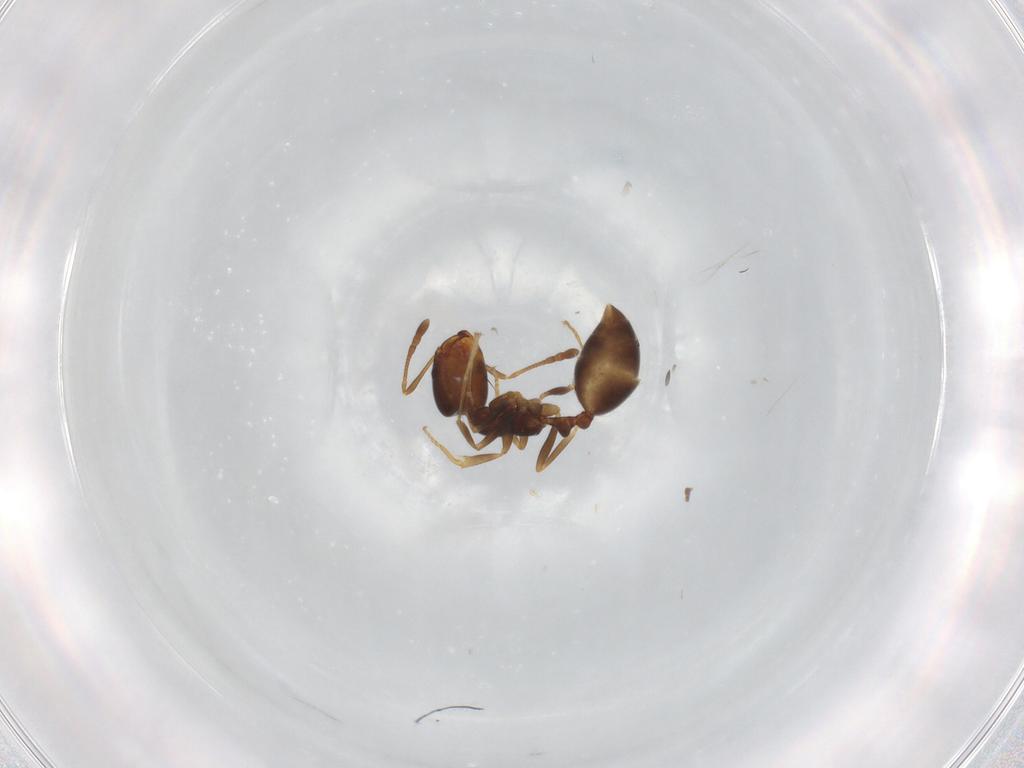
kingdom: Animalia
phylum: Arthropoda
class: Insecta
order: Hymenoptera
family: Formicidae
